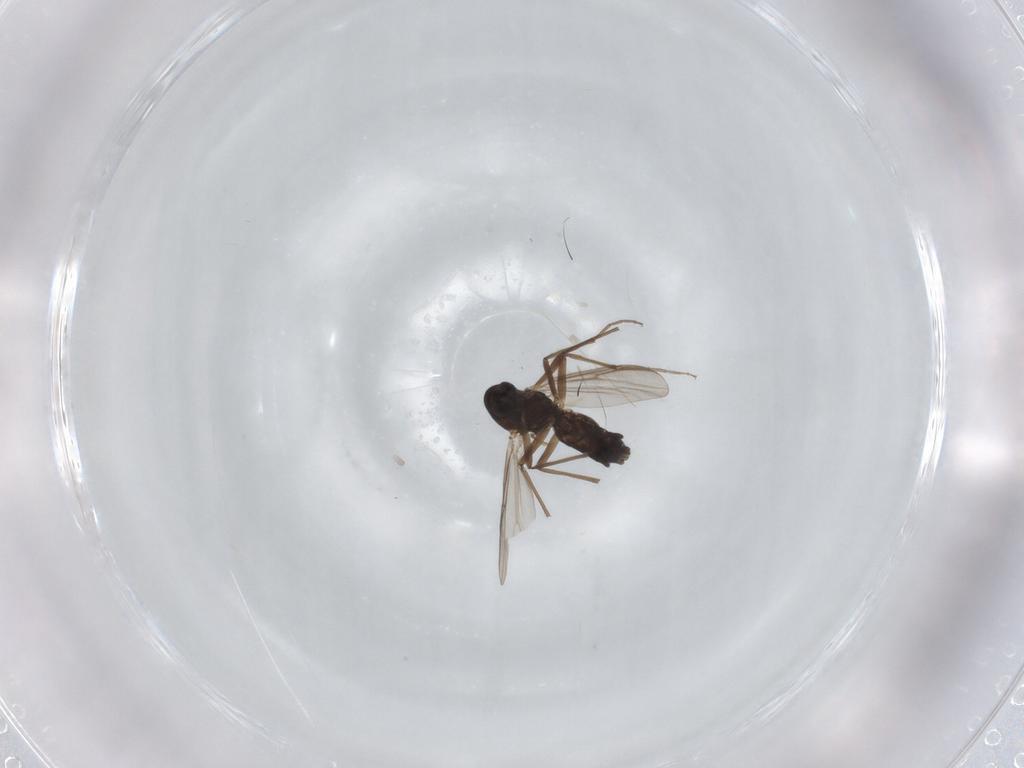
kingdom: Animalia
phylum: Arthropoda
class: Insecta
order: Diptera
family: Chironomidae
